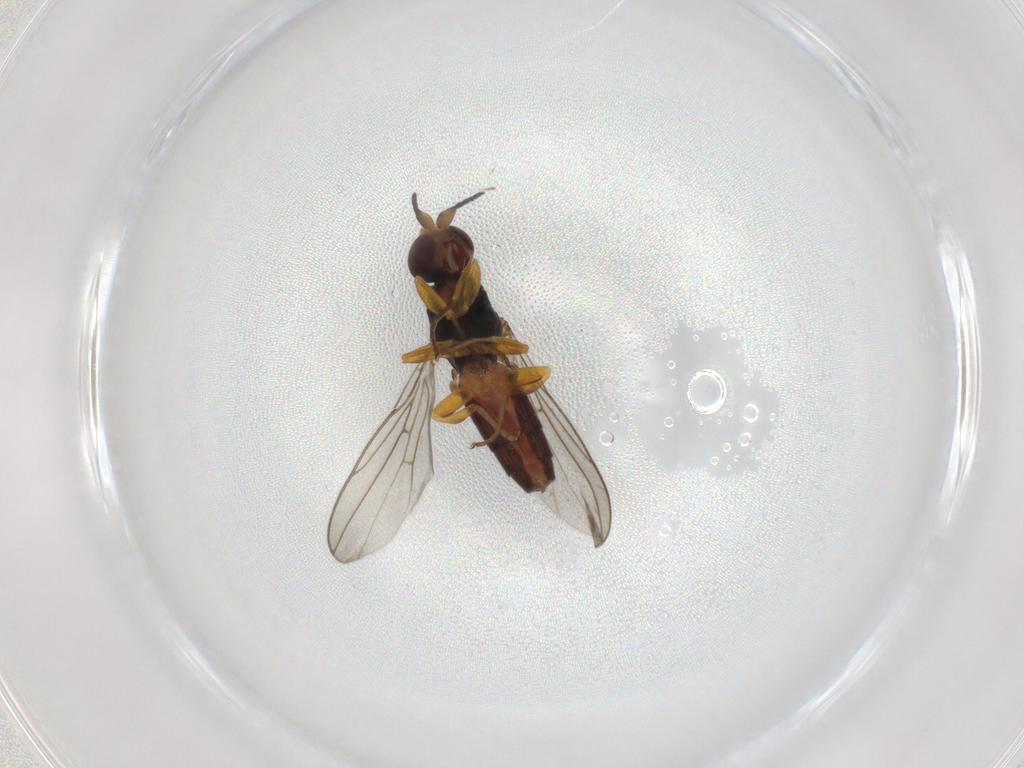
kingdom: Animalia
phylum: Arthropoda
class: Insecta
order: Diptera
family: Chloropidae
